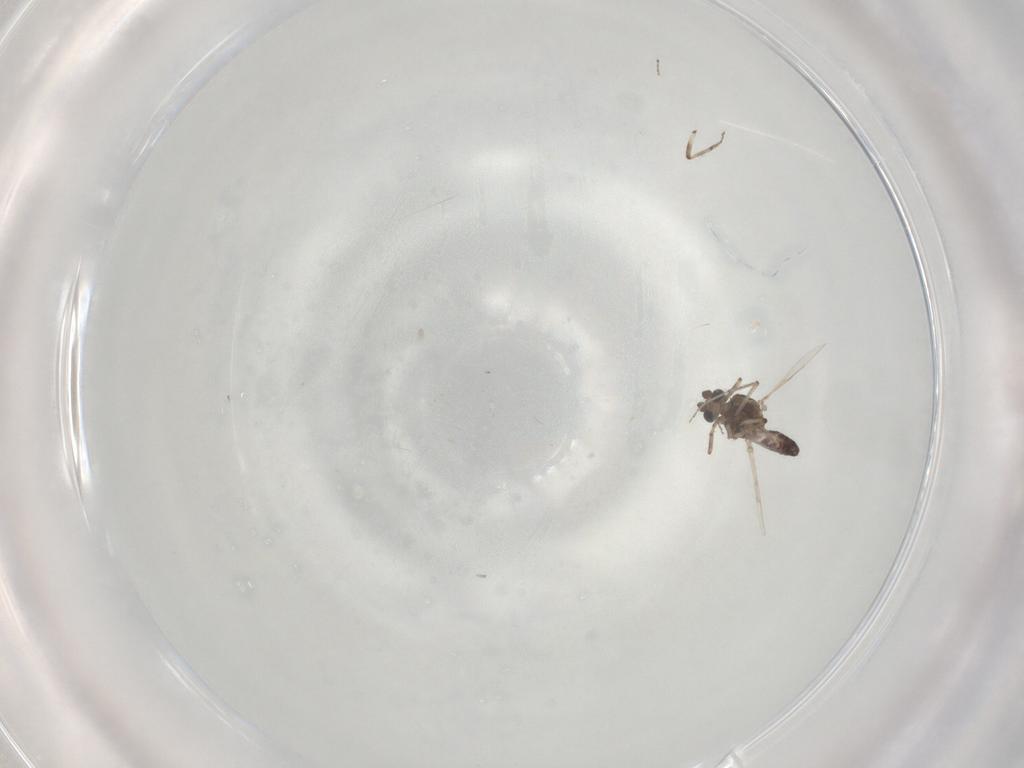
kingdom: Animalia
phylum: Arthropoda
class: Insecta
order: Diptera
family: Ceratopogonidae
